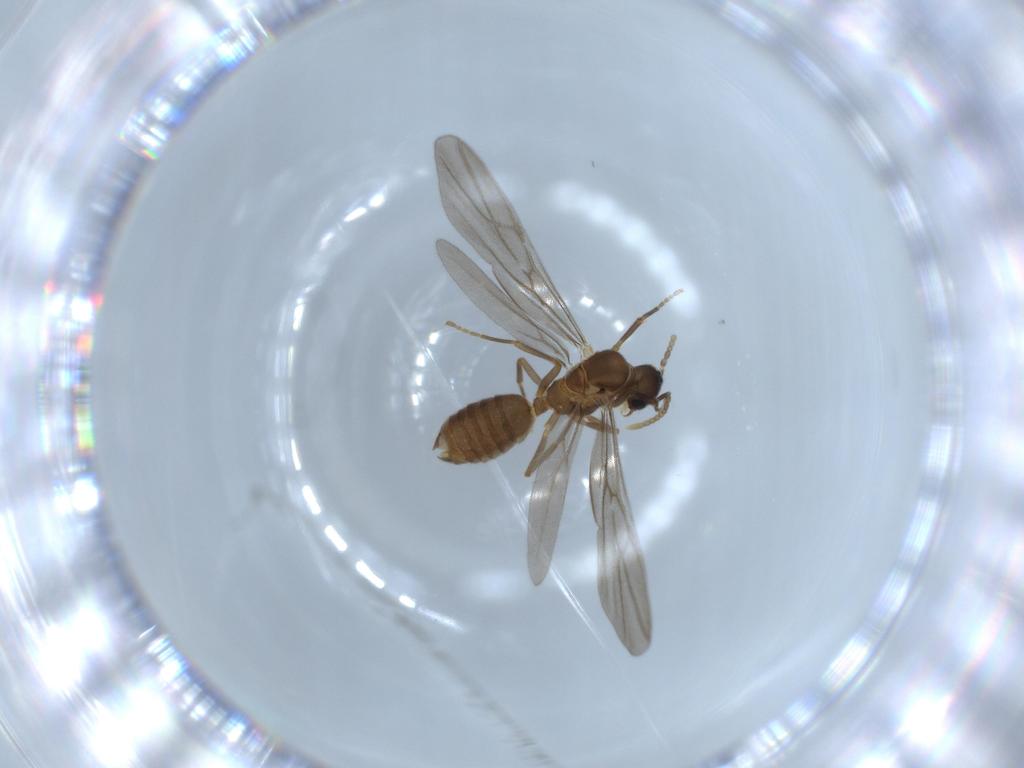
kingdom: Animalia
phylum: Arthropoda
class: Insecta
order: Hymenoptera
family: Formicidae
